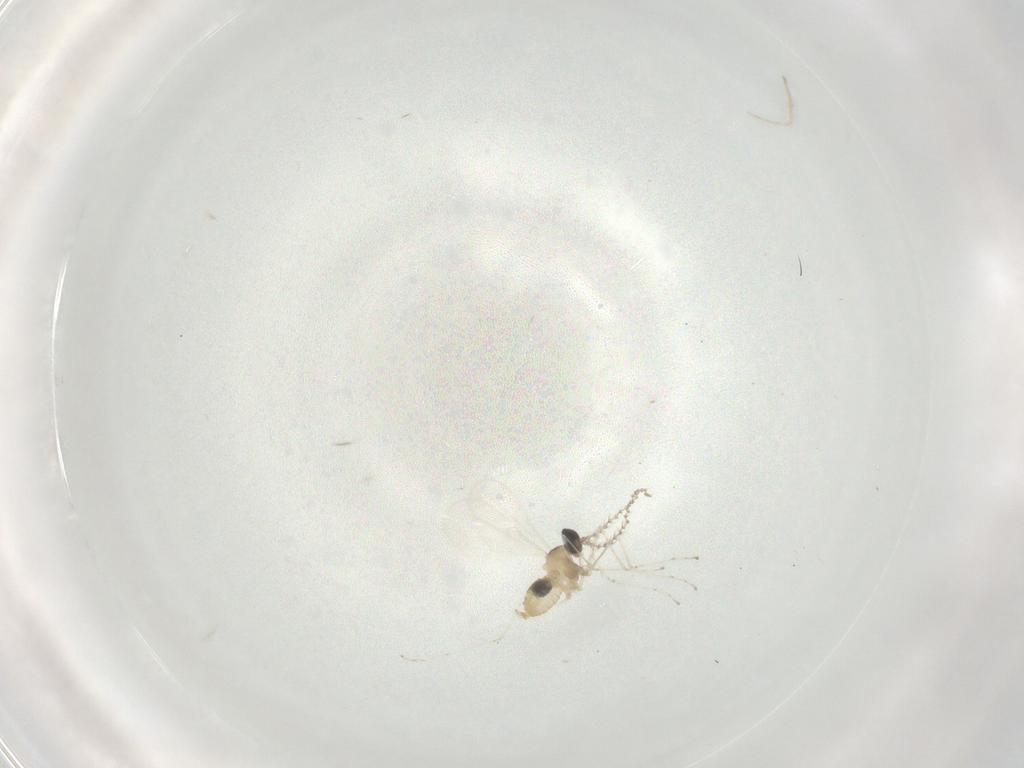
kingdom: Animalia
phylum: Arthropoda
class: Insecta
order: Diptera
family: Cecidomyiidae
